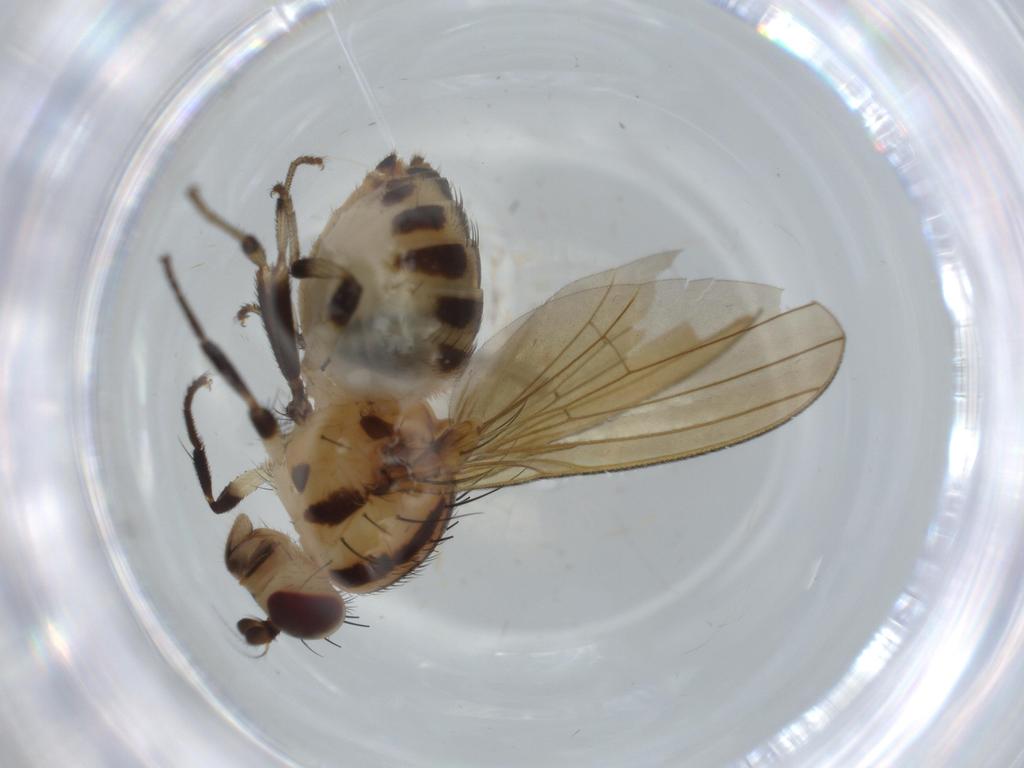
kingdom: Animalia
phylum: Arthropoda
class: Insecta
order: Diptera
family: Lauxaniidae
